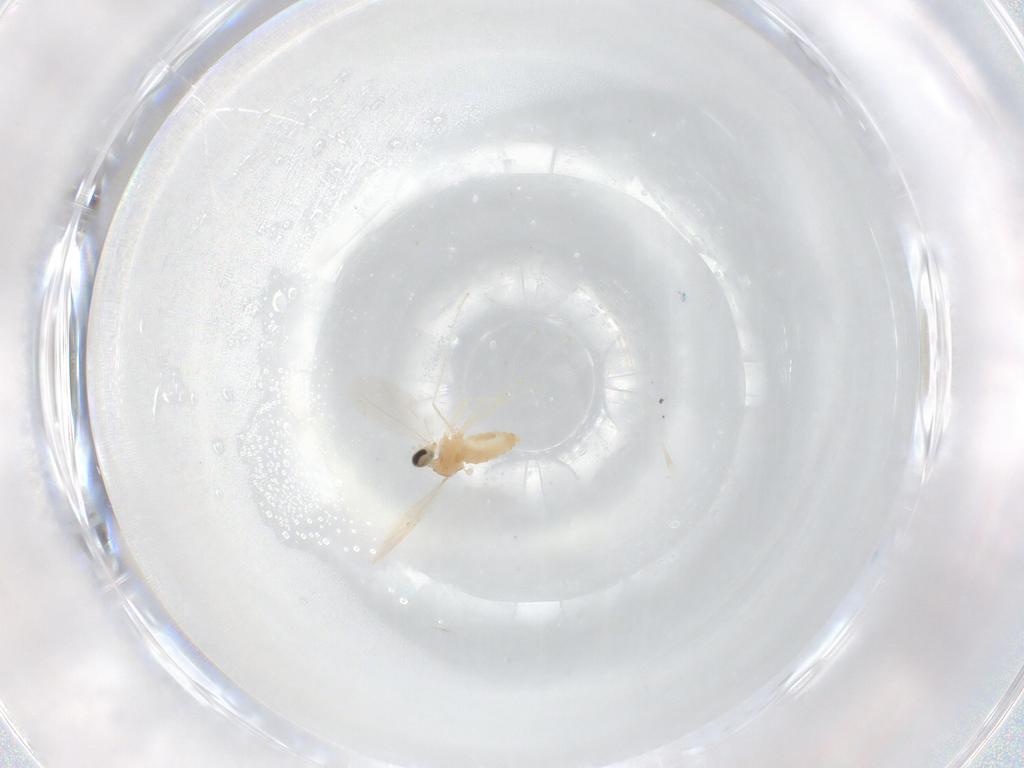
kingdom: Animalia
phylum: Arthropoda
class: Insecta
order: Diptera
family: Cecidomyiidae
